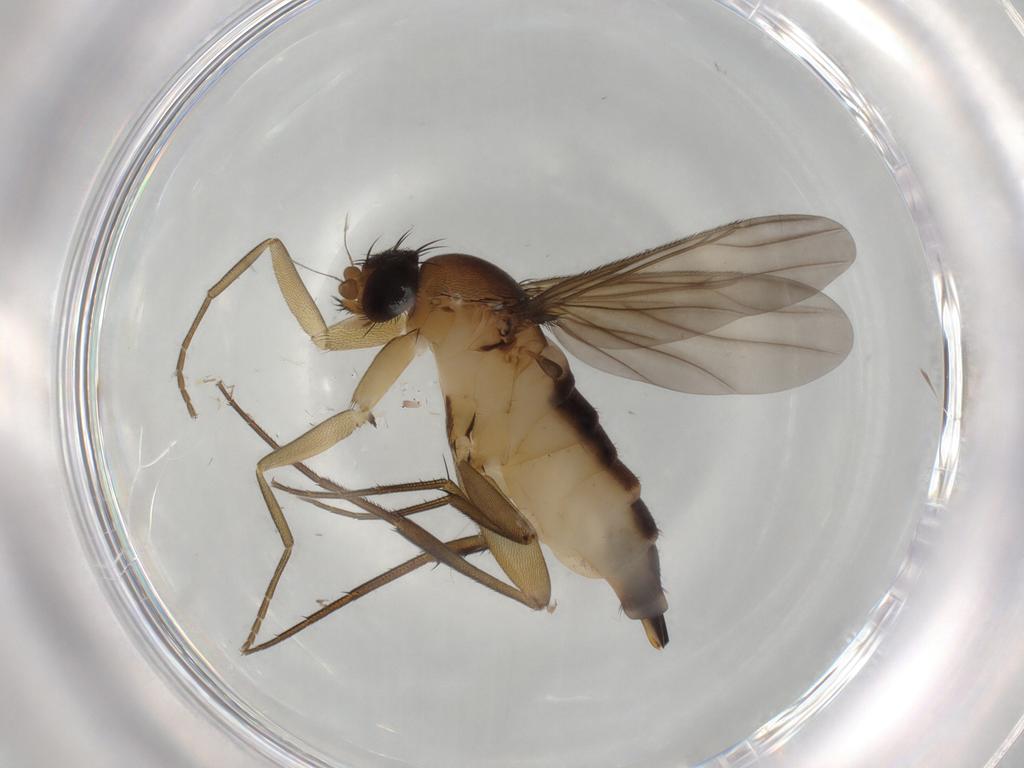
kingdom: Animalia
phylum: Arthropoda
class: Insecta
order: Diptera
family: Phoridae
